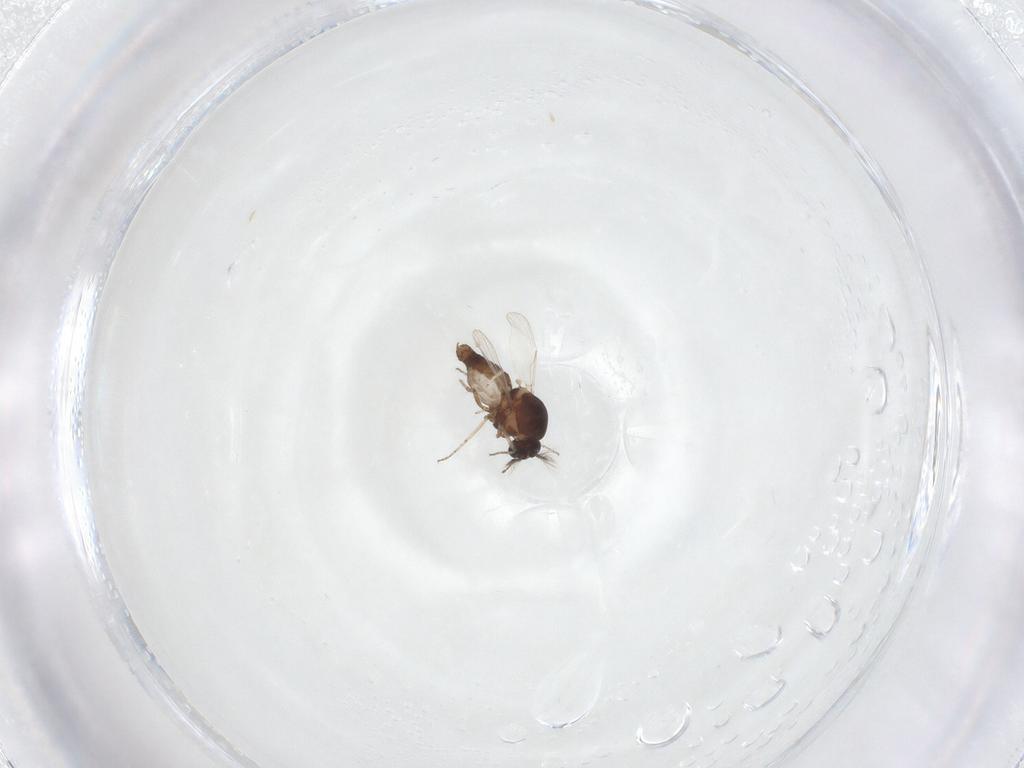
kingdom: Animalia
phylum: Arthropoda
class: Insecta
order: Diptera
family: Ceratopogonidae
